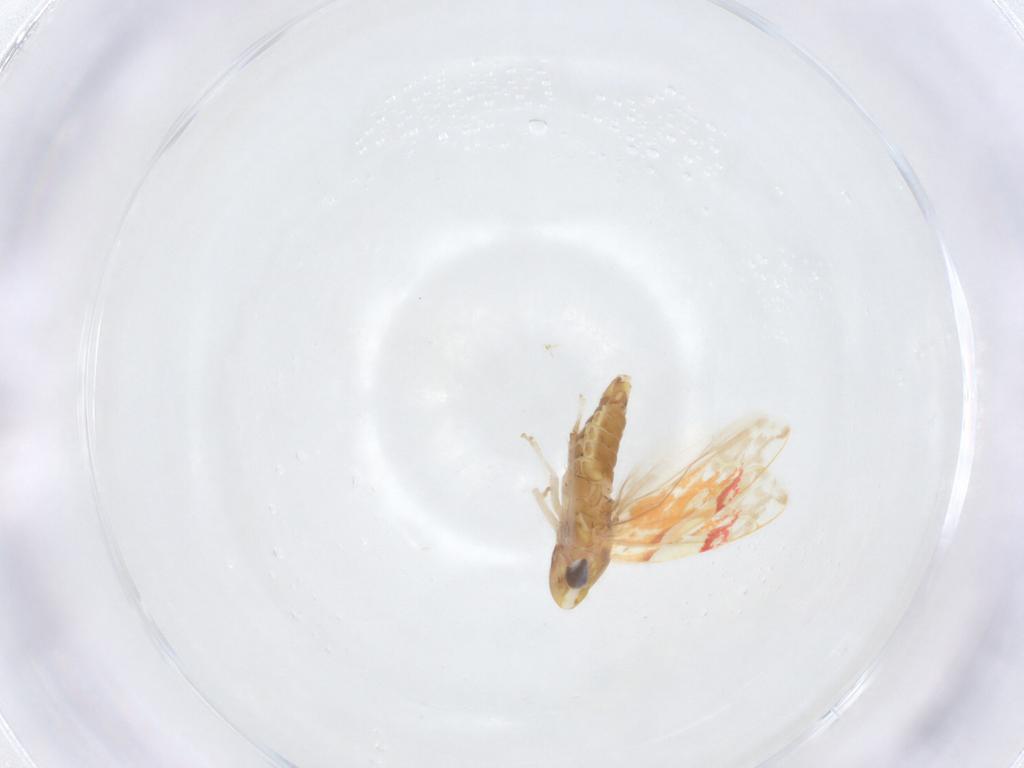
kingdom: Animalia
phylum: Arthropoda
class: Insecta
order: Hemiptera
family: Cicadellidae
